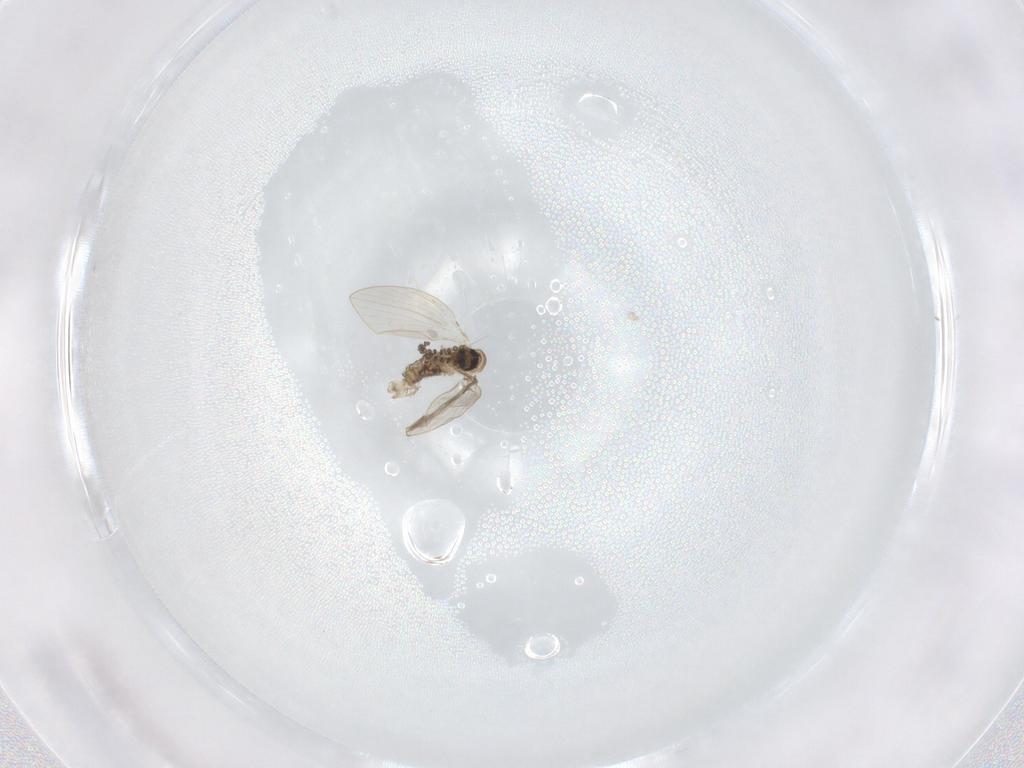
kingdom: Animalia
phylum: Arthropoda
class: Insecta
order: Diptera
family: Psychodidae
